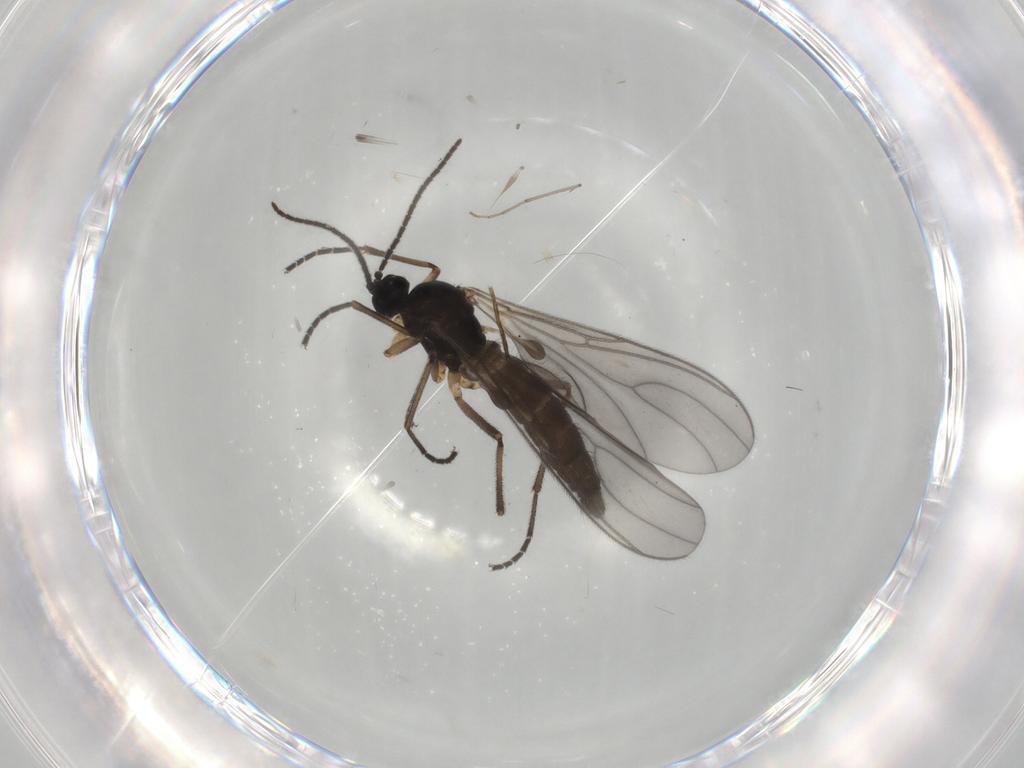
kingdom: Animalia
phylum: Arthropoda
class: Insecta
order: Diptera
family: Sciaridae
